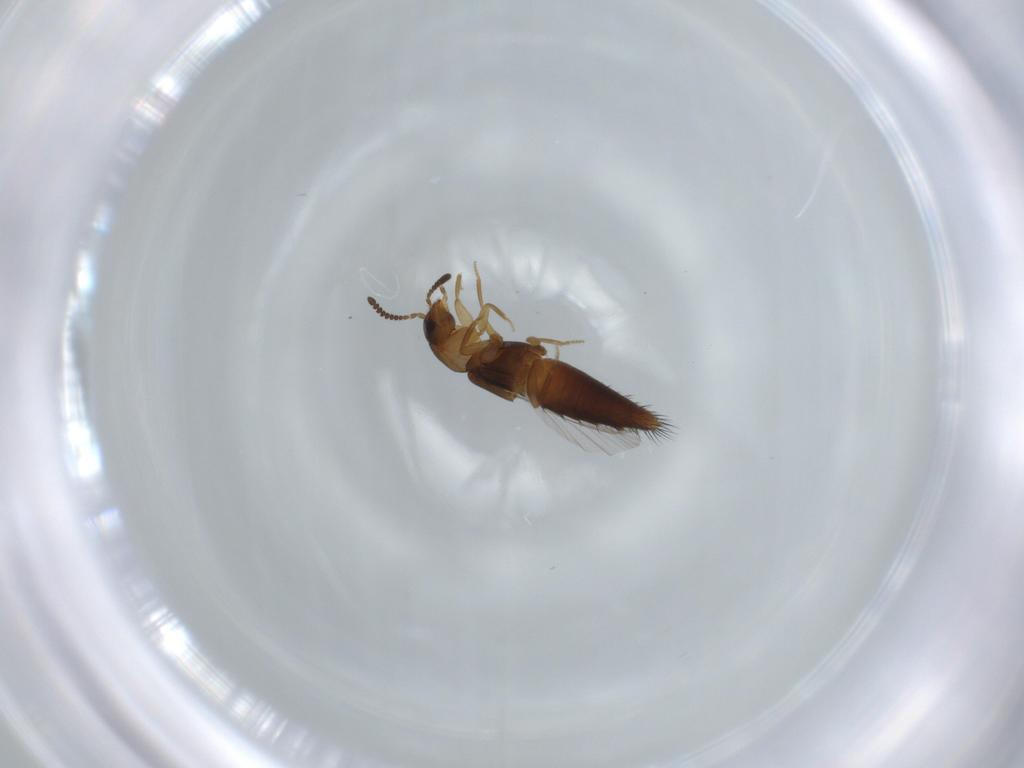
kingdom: Animalia
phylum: Arthropoda
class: Insecta
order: Coleoptera
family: Staphylinidae
